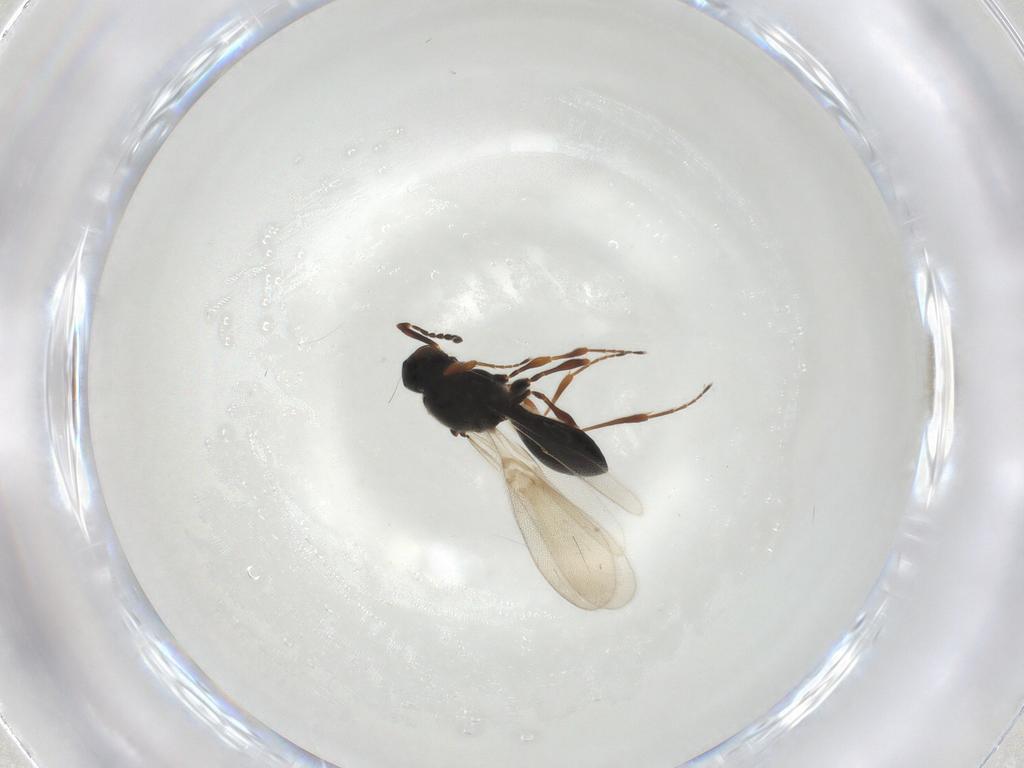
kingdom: Animalia
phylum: Arthropoda
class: Insecta
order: Hymenoptera
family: Platygastridae
